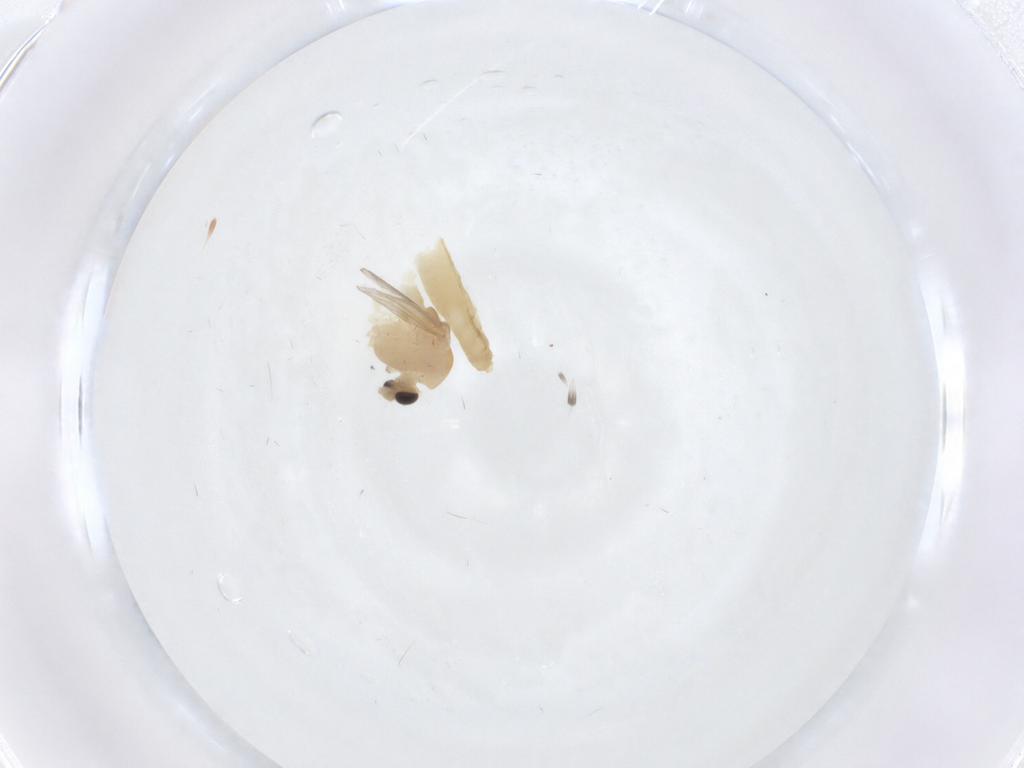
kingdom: Animalia
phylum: Arthropoda
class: Insecta
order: Diptera
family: Chironomidae
